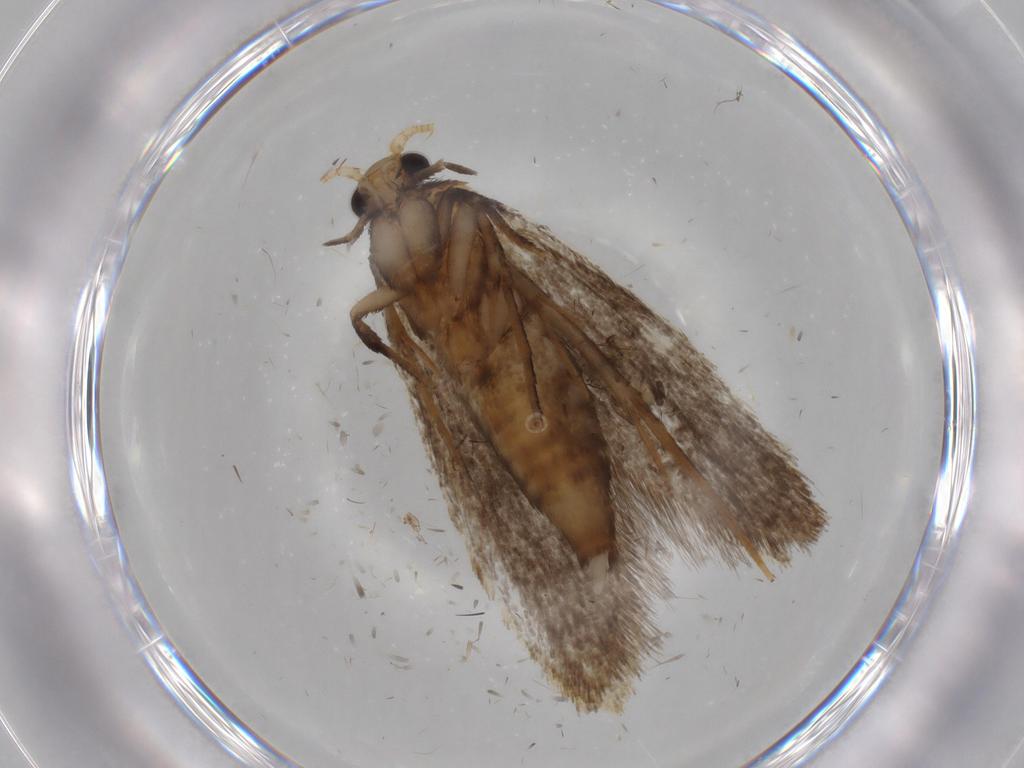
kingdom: Animalia
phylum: Arthropoda
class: Insecta
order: Lepidoptera
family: Tineidae
